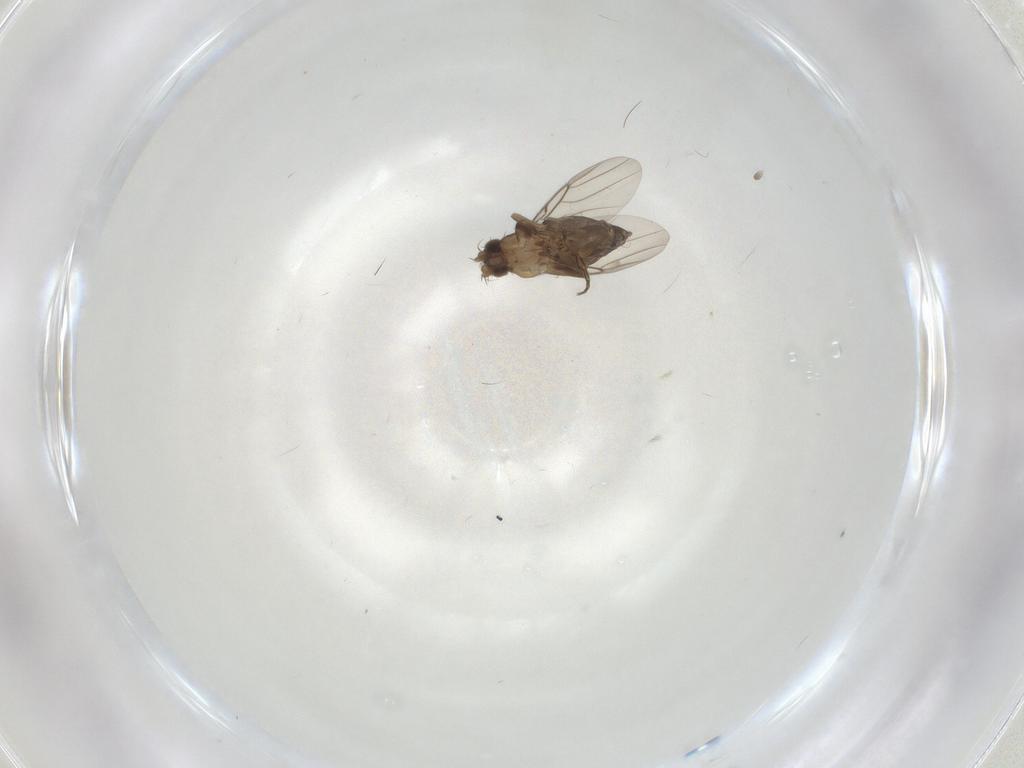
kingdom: Animalia
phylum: Arthropoda
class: Insecta
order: Diptera
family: Phoridae
